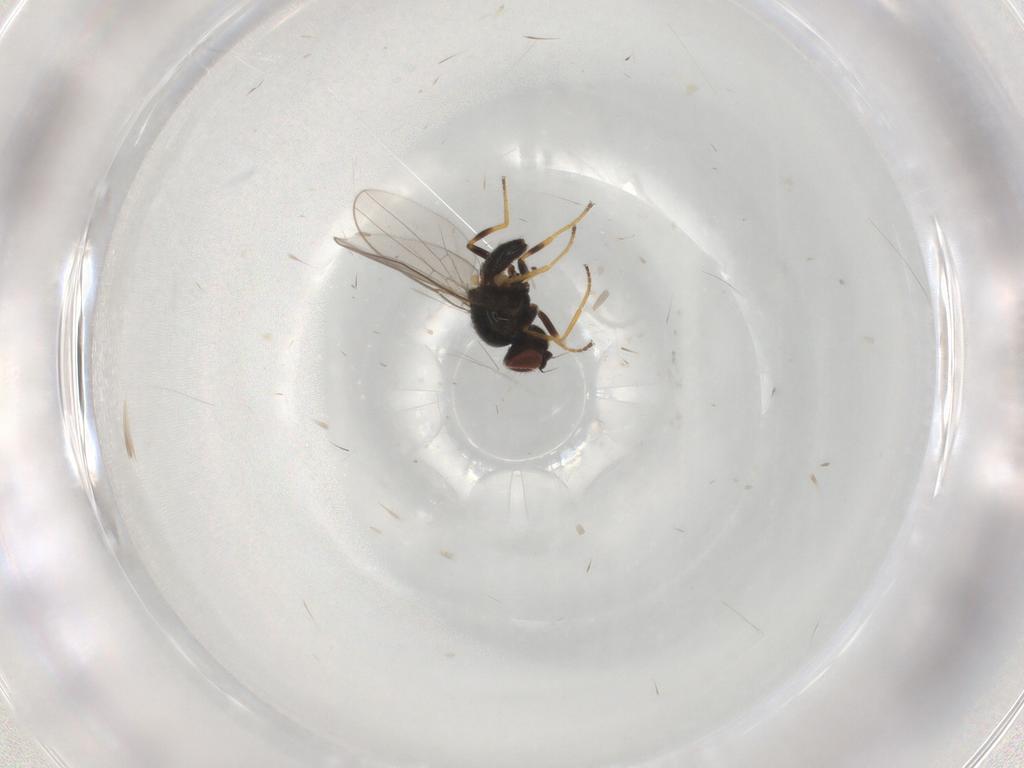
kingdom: Animalia
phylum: Arthropoda
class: Insecta
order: Diptera
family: Chloropidae
